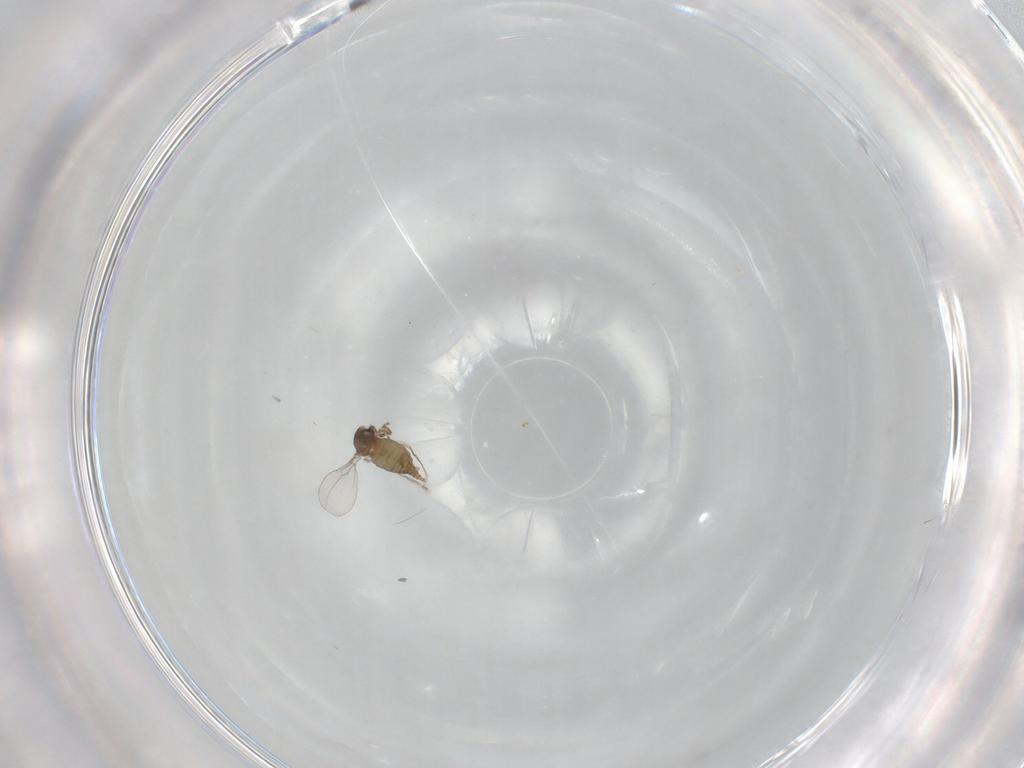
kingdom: Animalia
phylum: Arthropoda
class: Insecta
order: Diptera
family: Cecidomyiidae
